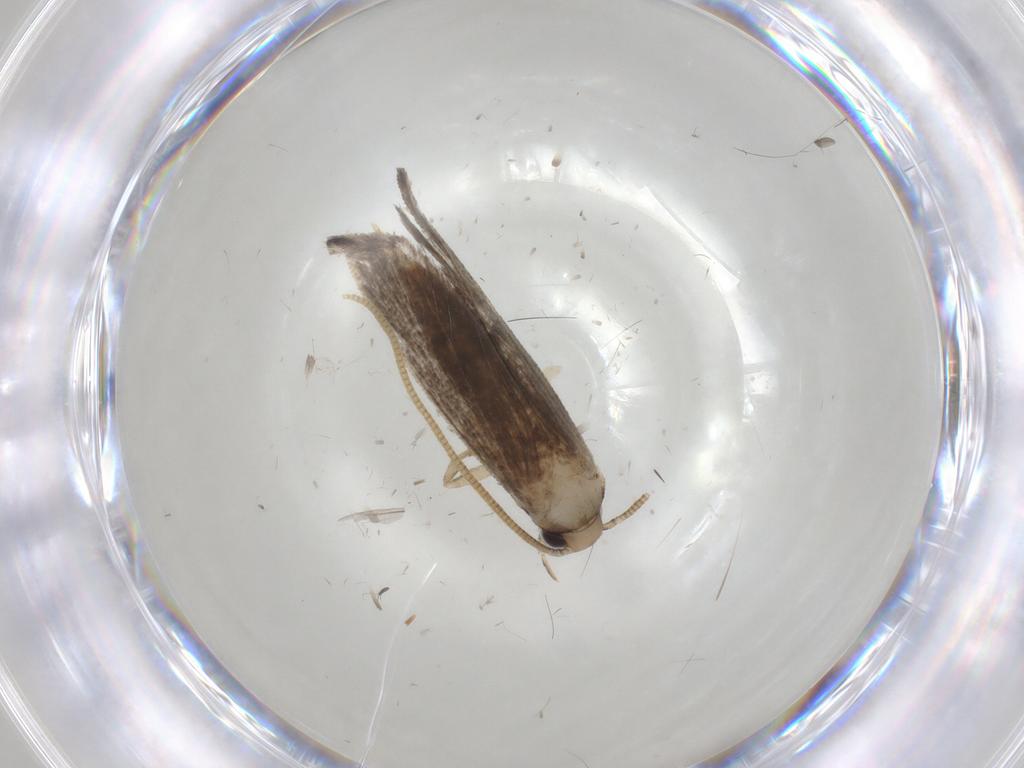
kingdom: Animalia
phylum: Arthropoda
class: Insecta
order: Lepidoptera
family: Tineidae
